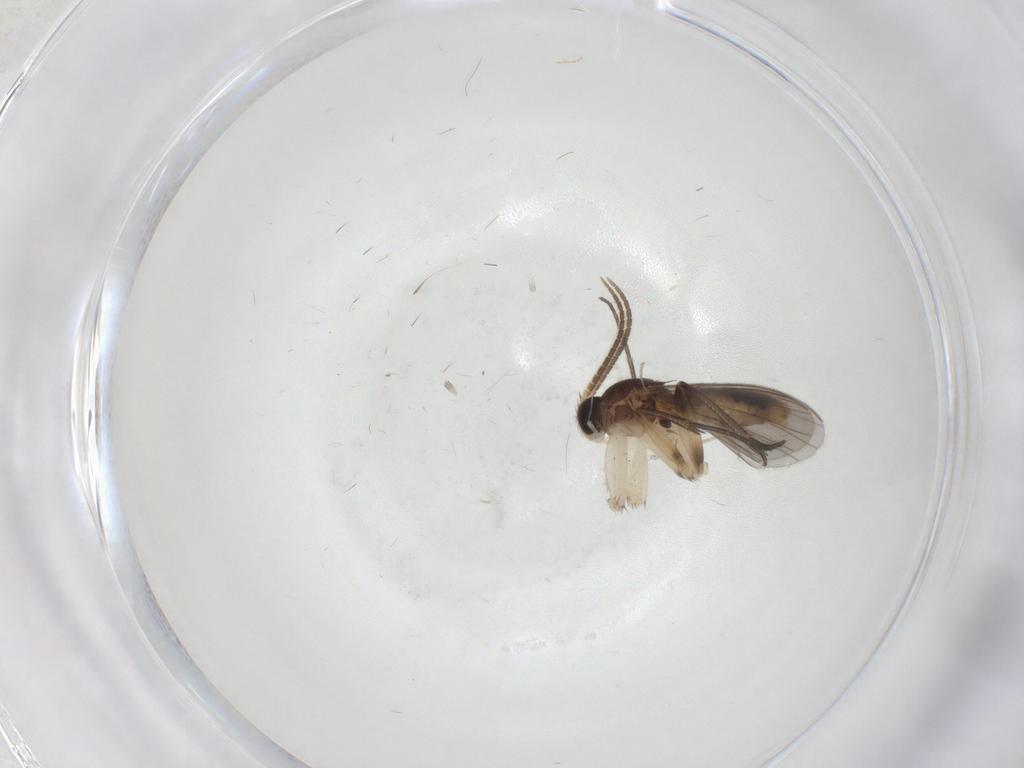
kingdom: Animalia
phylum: Arthropoda
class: Insecta
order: Diptera
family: Mycetophilidae
